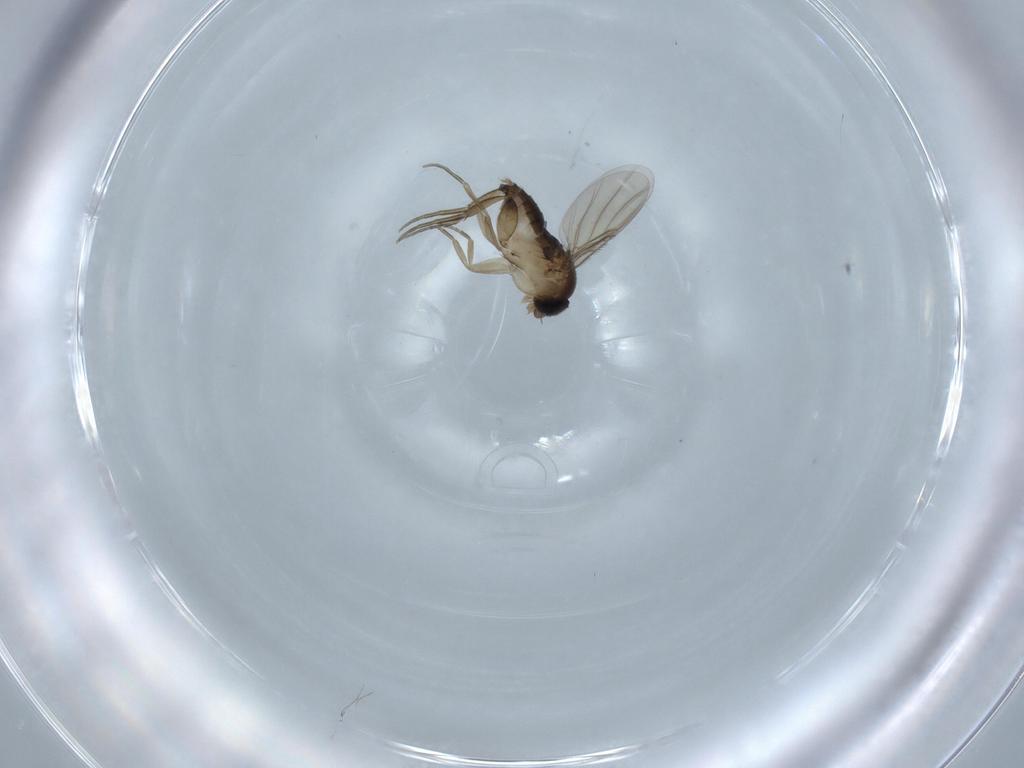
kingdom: Animalia
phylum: Arthropoda
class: Insecta
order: Diptera
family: Phoridae
